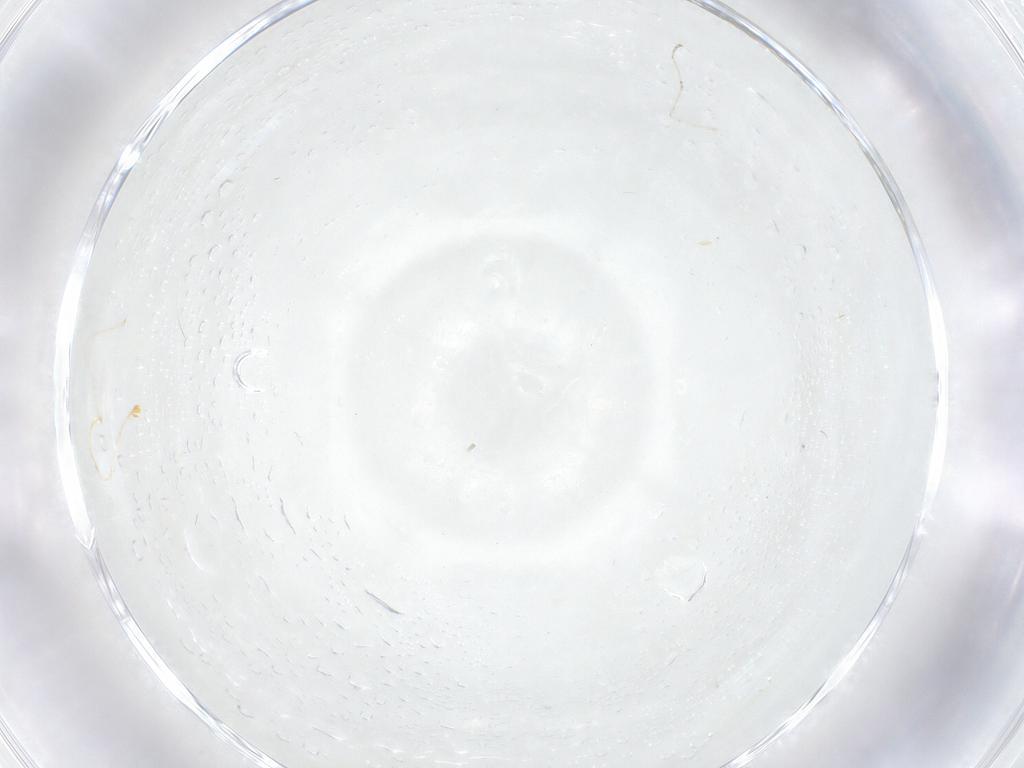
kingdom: Animalia
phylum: Arthropoda
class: Insecta
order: Diptera
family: Cecidomyiidae
